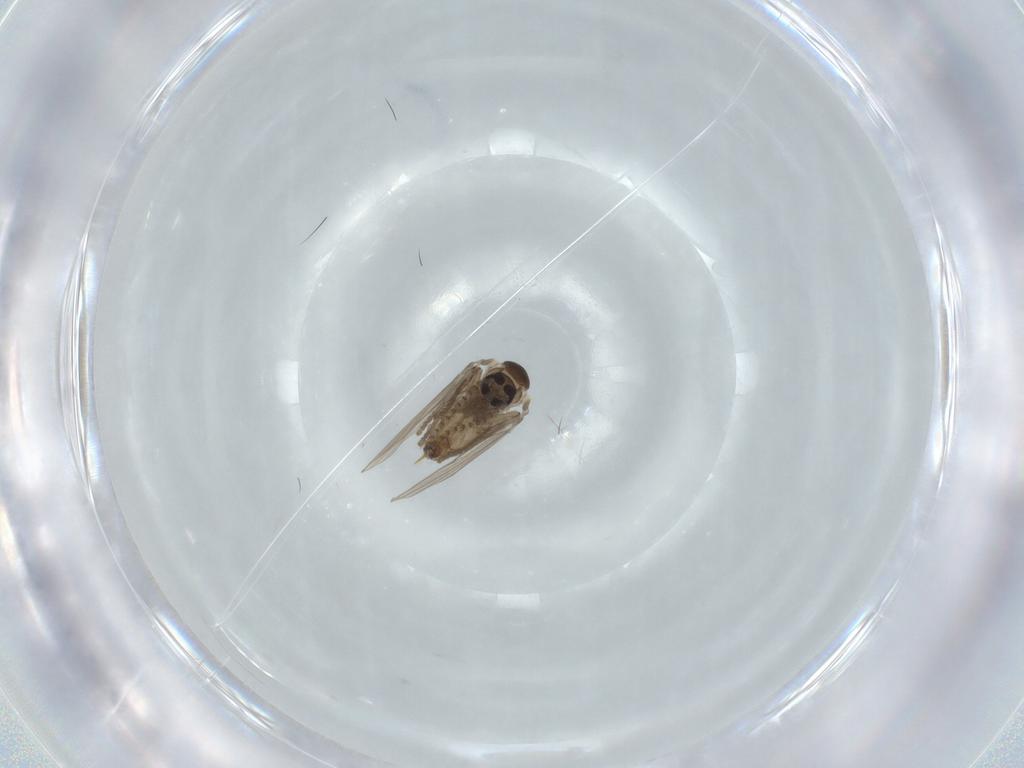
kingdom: Animalia
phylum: Arthropoda
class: Insecta
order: Diptera
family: Psychodidae
